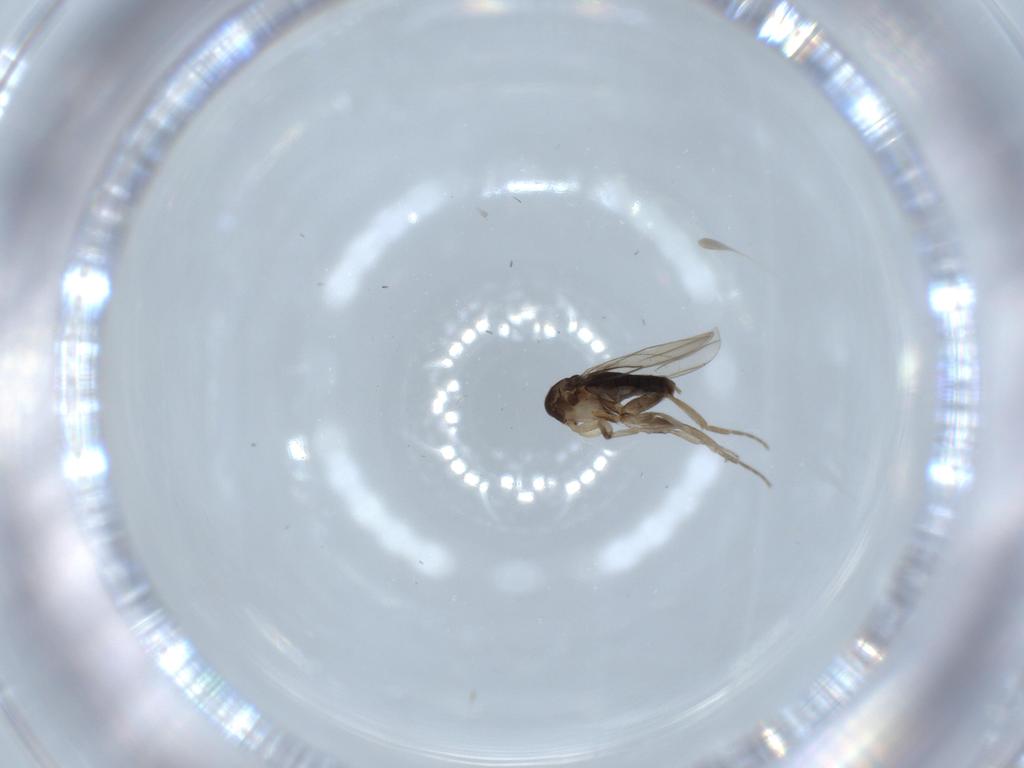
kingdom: Animalia
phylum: Arthropoda
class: Insecta
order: Diptera
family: Phoridae
